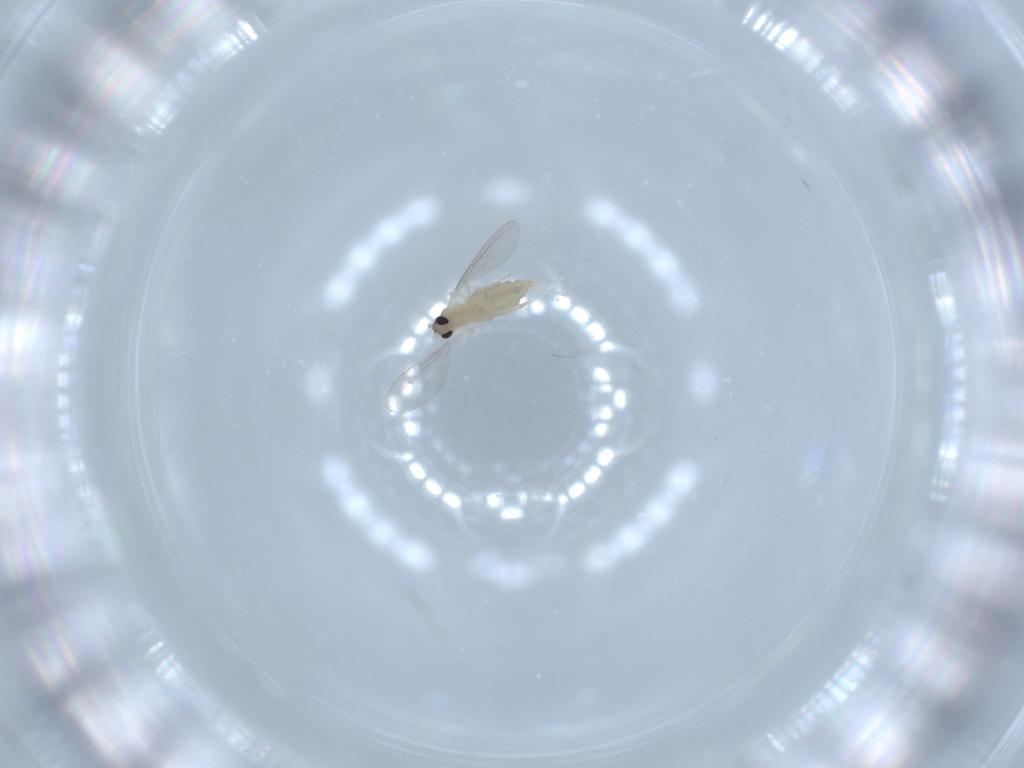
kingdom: Animalia
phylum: Arthropoda
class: Insecta
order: Diptera
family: Cecidomyiidae
